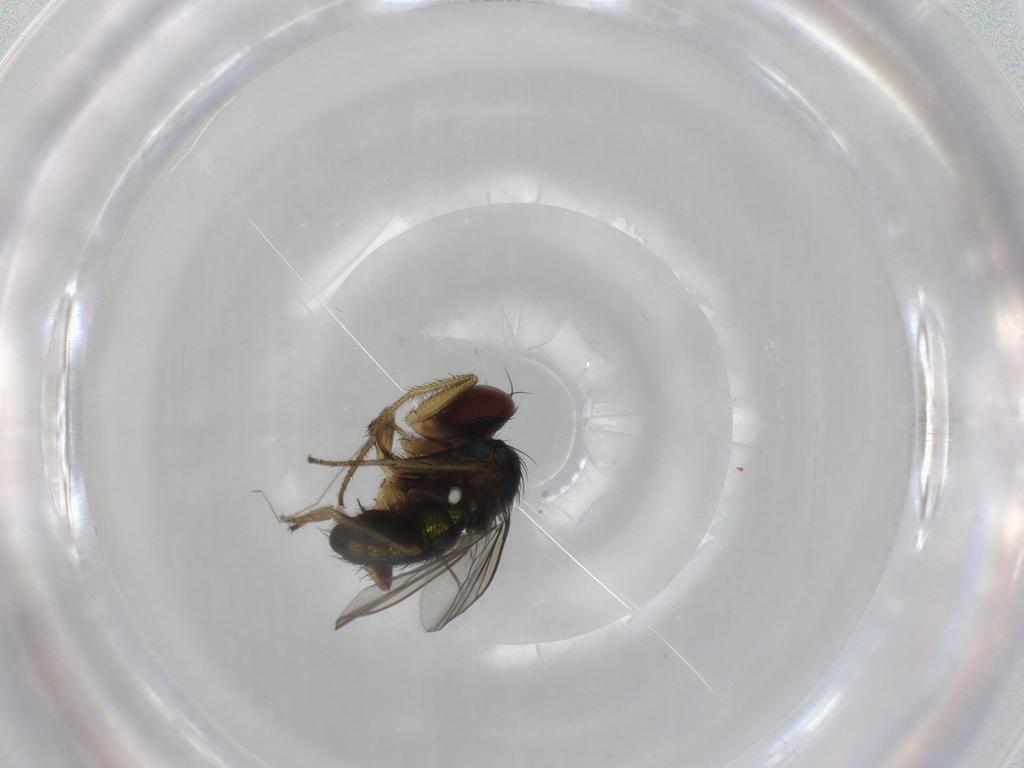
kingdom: Animalia
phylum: Arthropoda
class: Insecta
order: Diptera
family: Dolichopodidae
